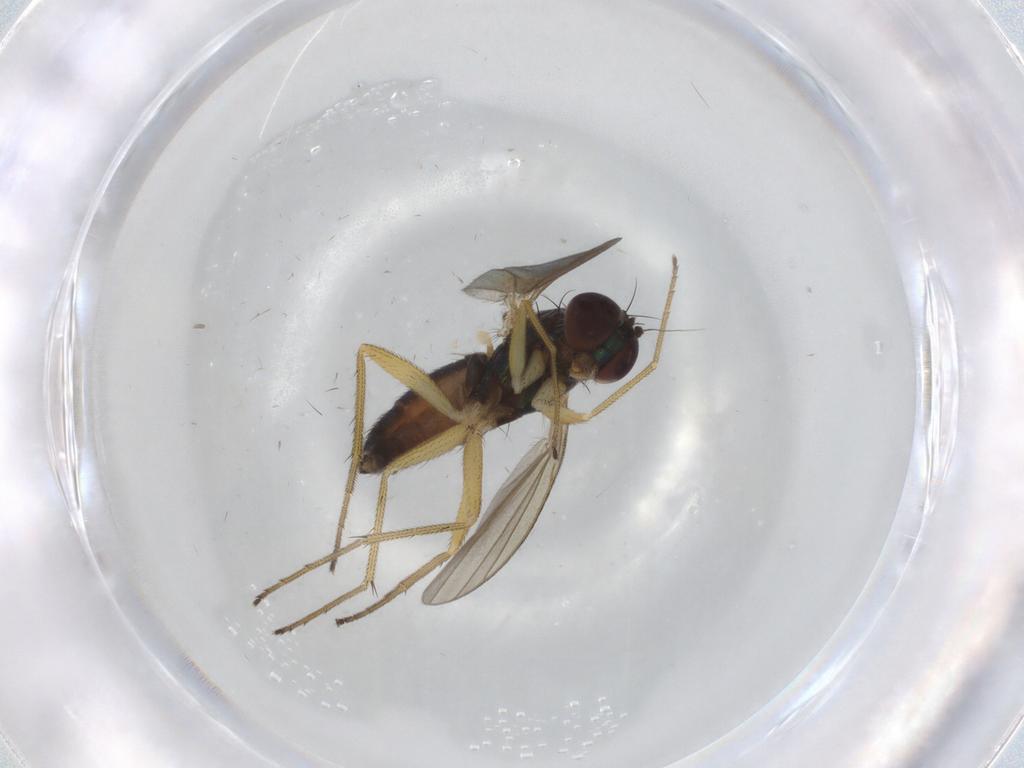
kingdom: Animalia
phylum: Arthropoda
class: Insecta
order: Diptera
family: Dolichopodidae
